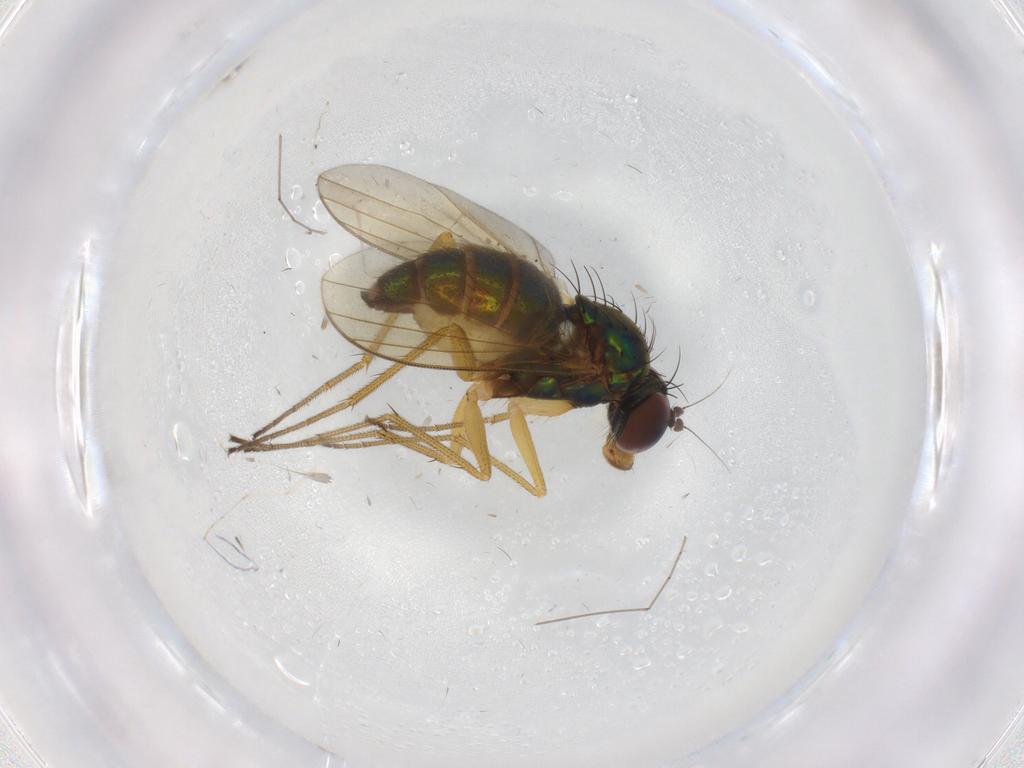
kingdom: Animalia
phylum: Arthropoda
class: Insecta
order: Diptera
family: Dolichopodidae
